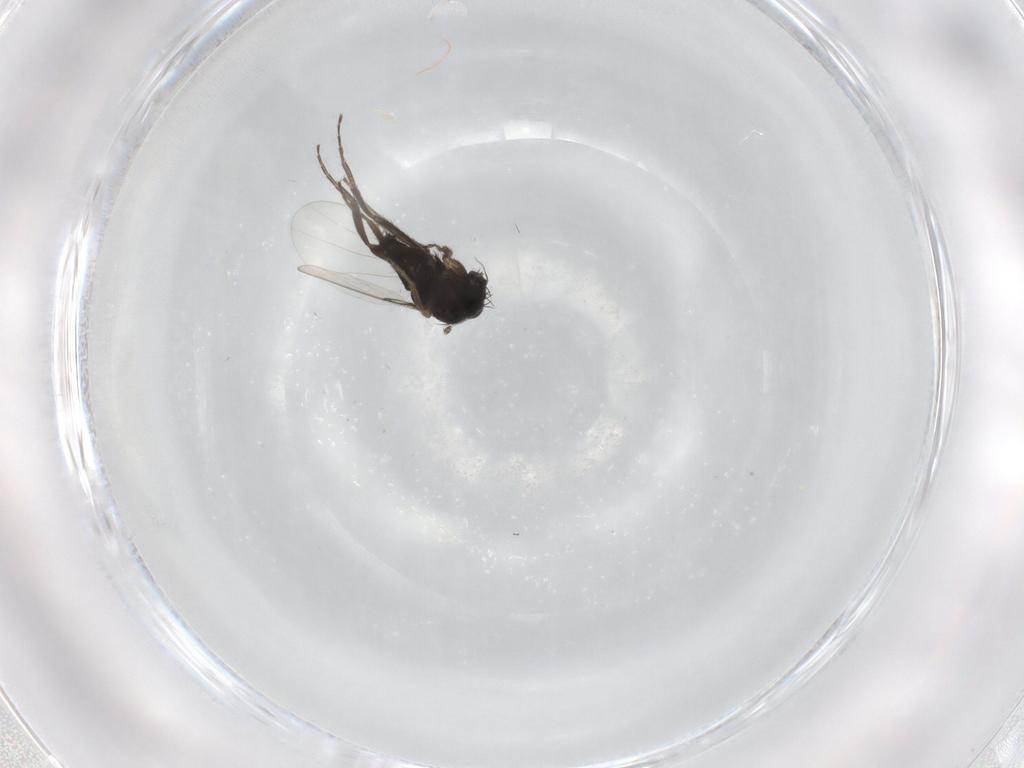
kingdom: Animalia
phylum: Arthropoda
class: Insecta
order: Diptera
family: Phoridae
